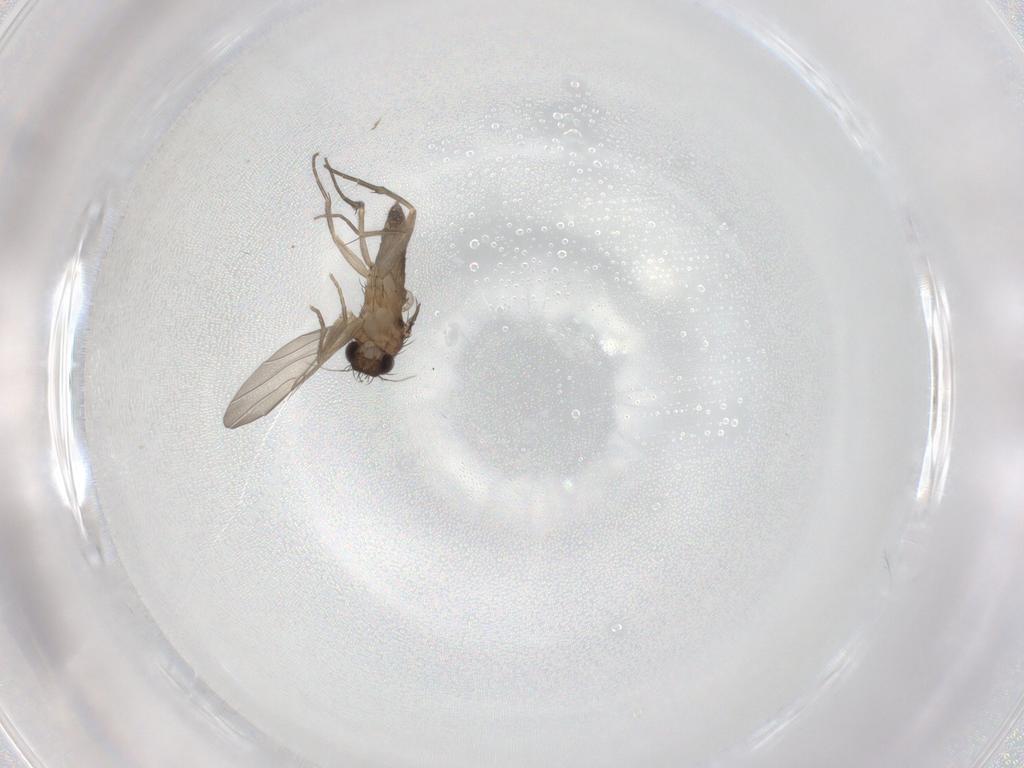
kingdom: Animalia
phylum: Arthropoda
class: Insecta
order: Diptera
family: Phoridae
